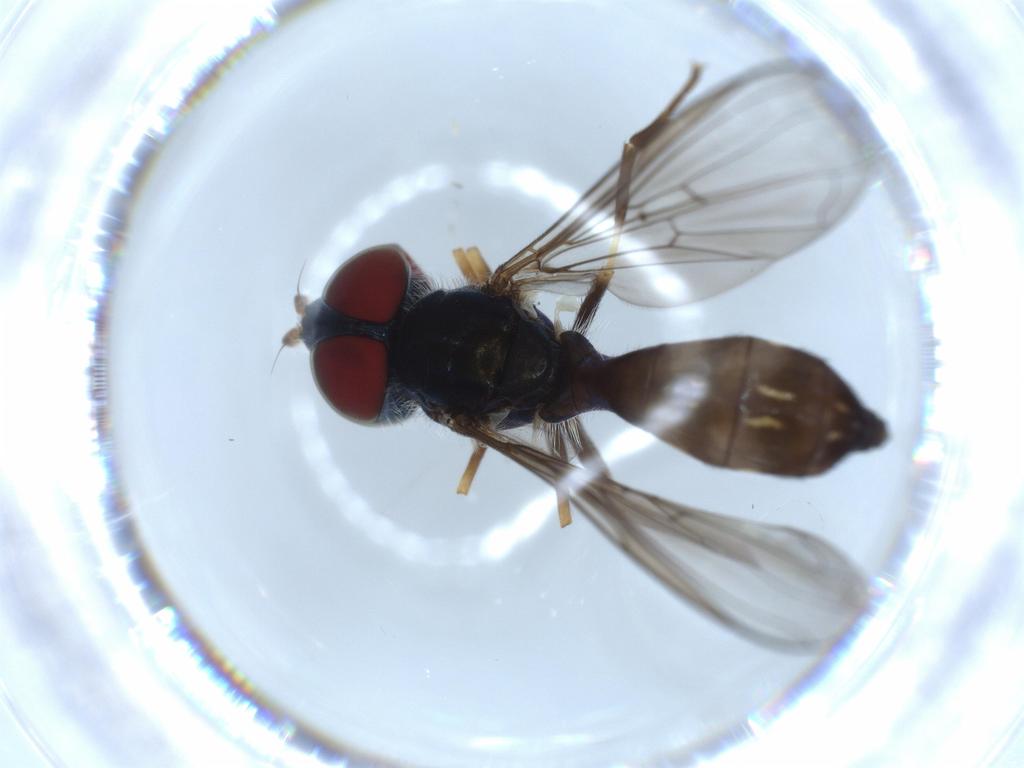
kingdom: Animalia
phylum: Arthropoda
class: Insecta
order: Diptera
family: Syrphidae
